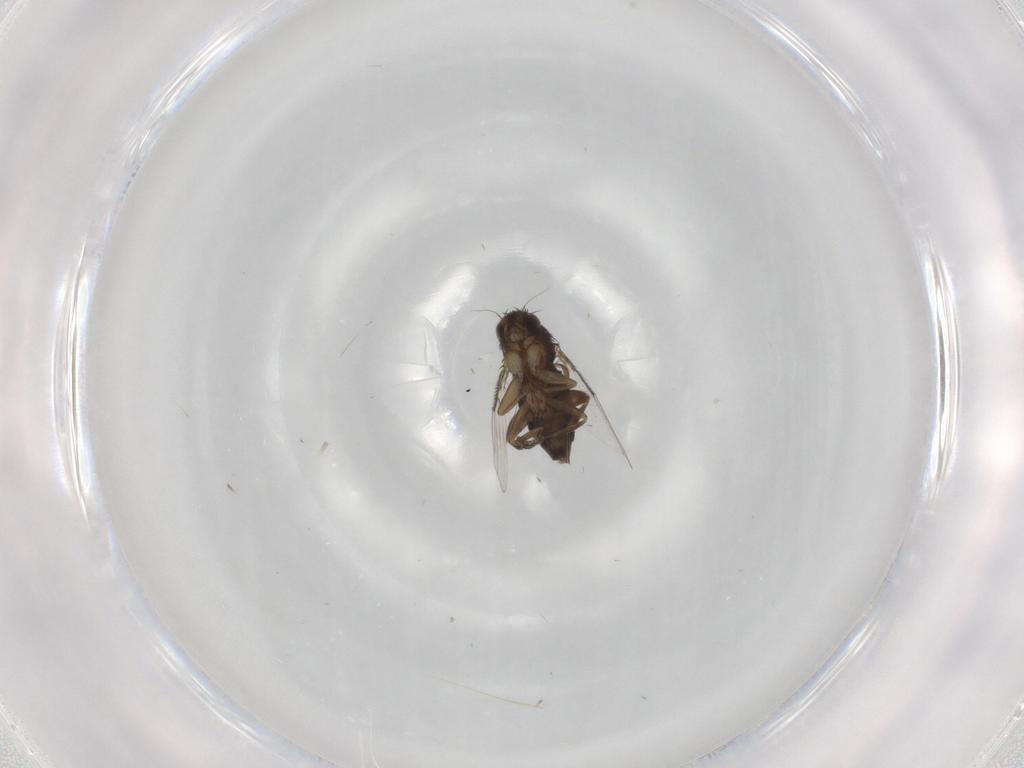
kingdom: Animalia
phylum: Arthropoda
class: Insecta
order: Diptera
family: Phoridae
